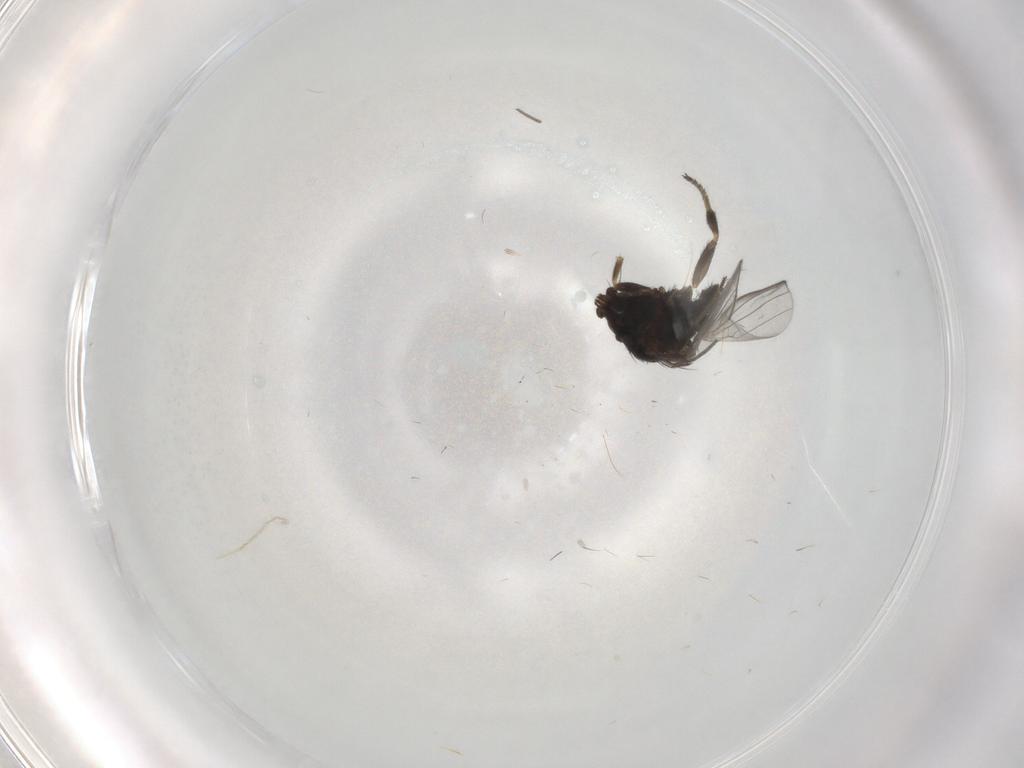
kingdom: Animalia
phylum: Arthropoda
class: Insecta
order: Diptera
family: Milichiidae
